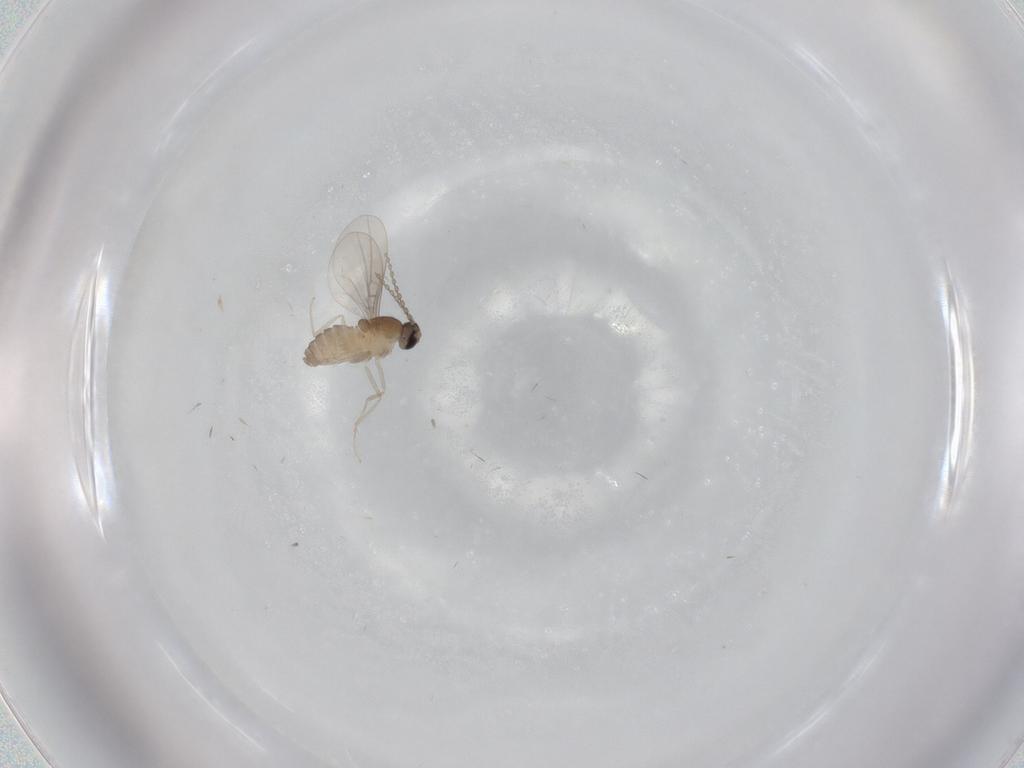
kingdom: Animalia
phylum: Arthropoda
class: Insecta
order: Diptera
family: Cecidomyiidae
